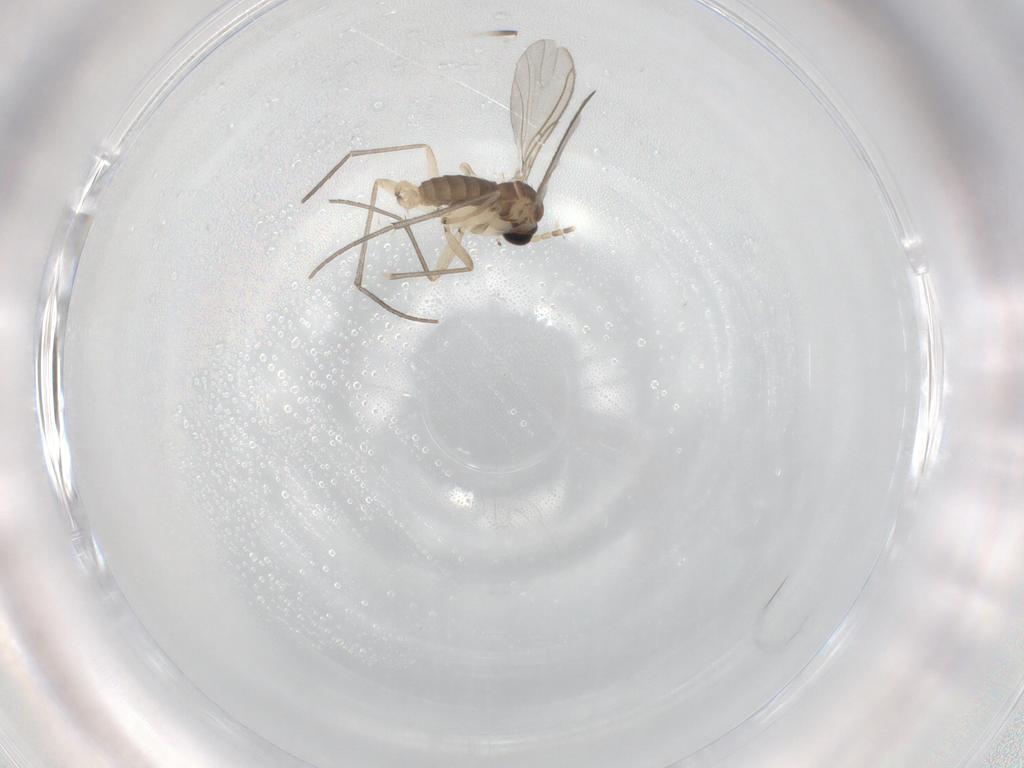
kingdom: Animalia
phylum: Arthropoda
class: Insecta
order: Diptera
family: Sciaridae
